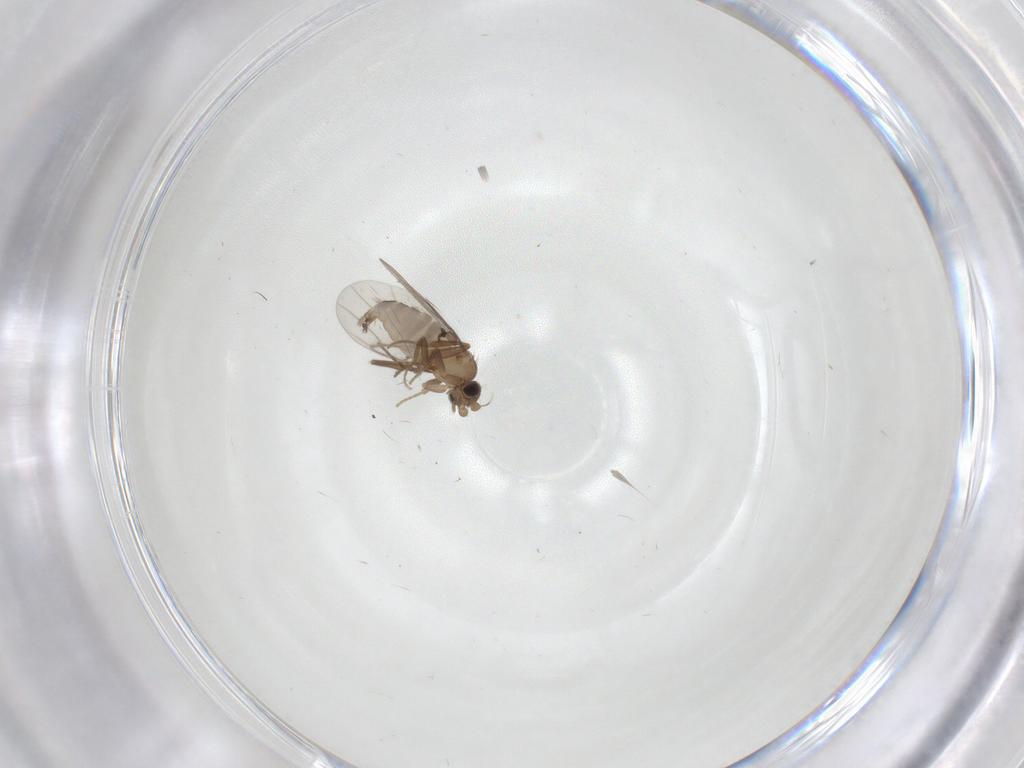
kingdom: Animalia
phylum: Arthropoda
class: Insecta
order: Diptera
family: Cecidomyiidae
